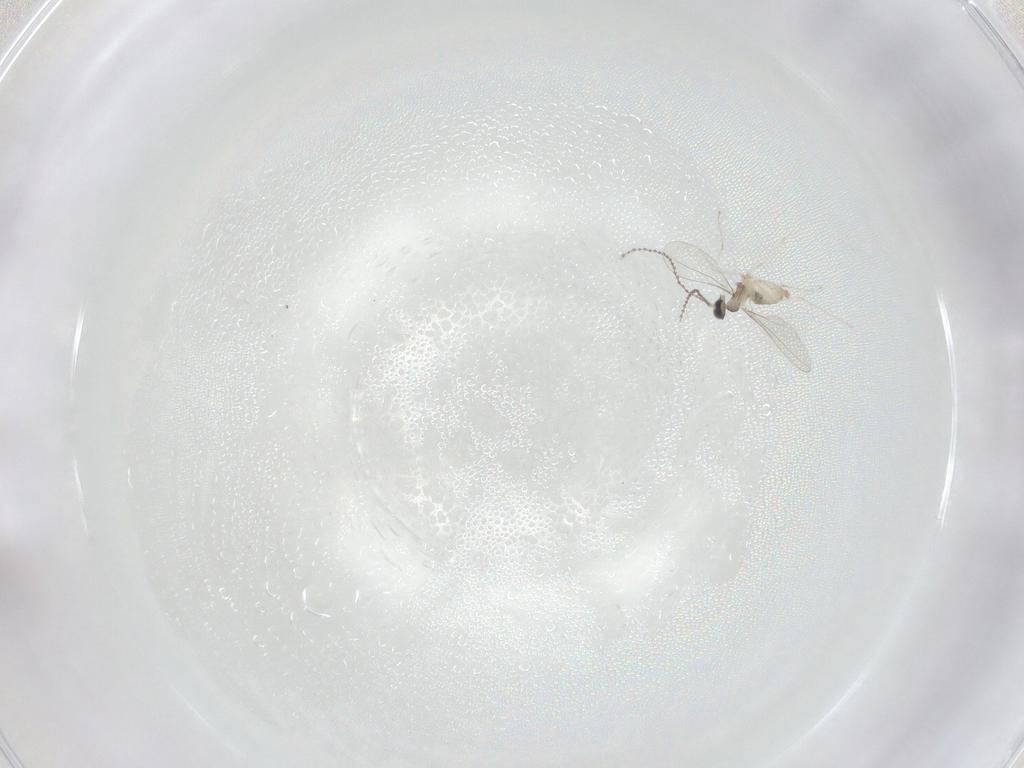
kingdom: Animalia
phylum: Arthropoda
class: Insecta
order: Diptera
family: Cecidomyiidae
